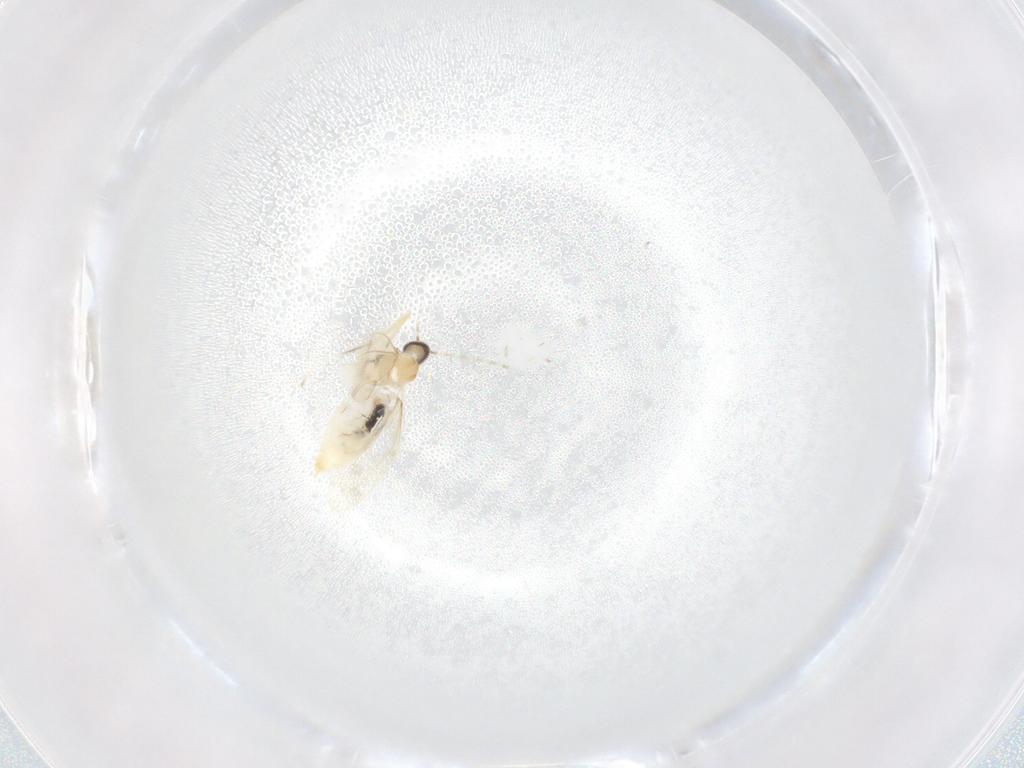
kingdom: Animalia
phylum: Arthropoda
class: Insecta
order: Diptera
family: Cecidomyiidae
